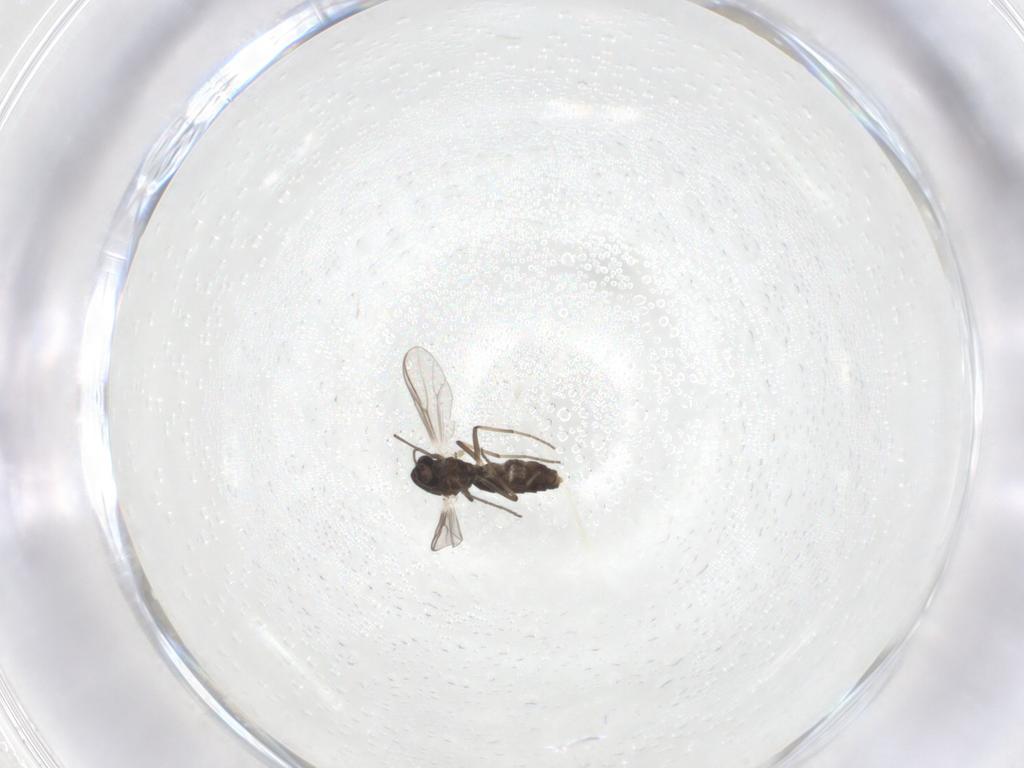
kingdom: Animalia
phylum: Arthropoda
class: Insecta
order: Diptera
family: Chironomidae
